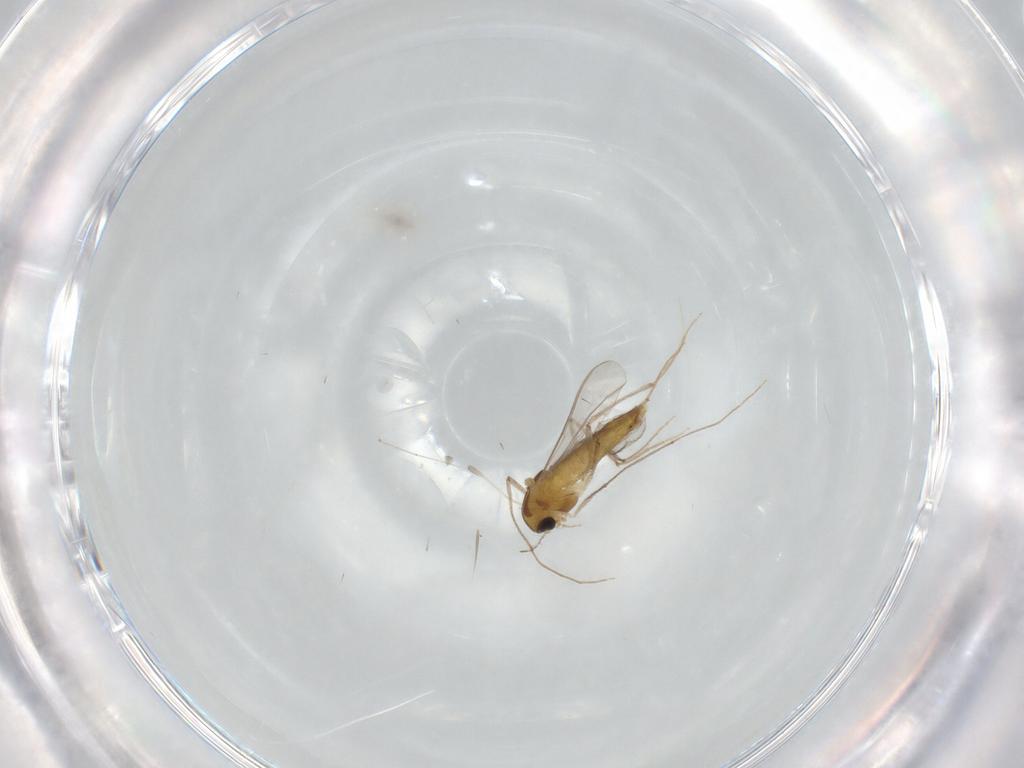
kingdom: Animalia
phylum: Arthropoda
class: Insecta
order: Diptera
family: Chironomidae
